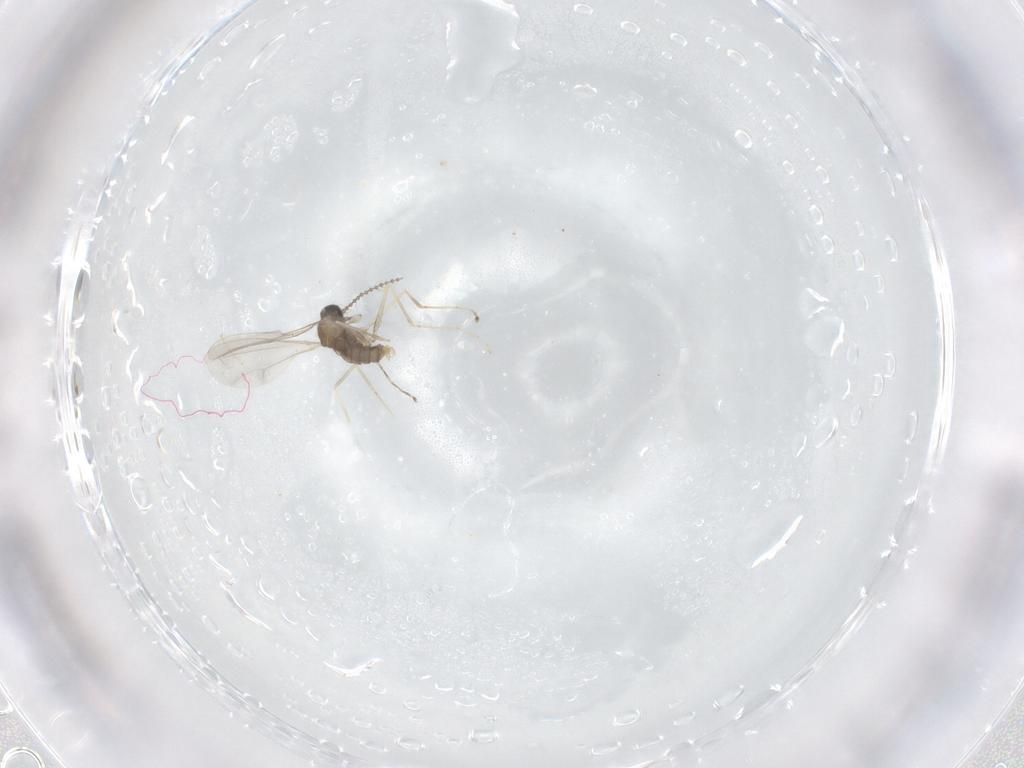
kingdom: Animalia
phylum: Arthropoda
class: Insecta
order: Diptera
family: Cecidomyiidae
